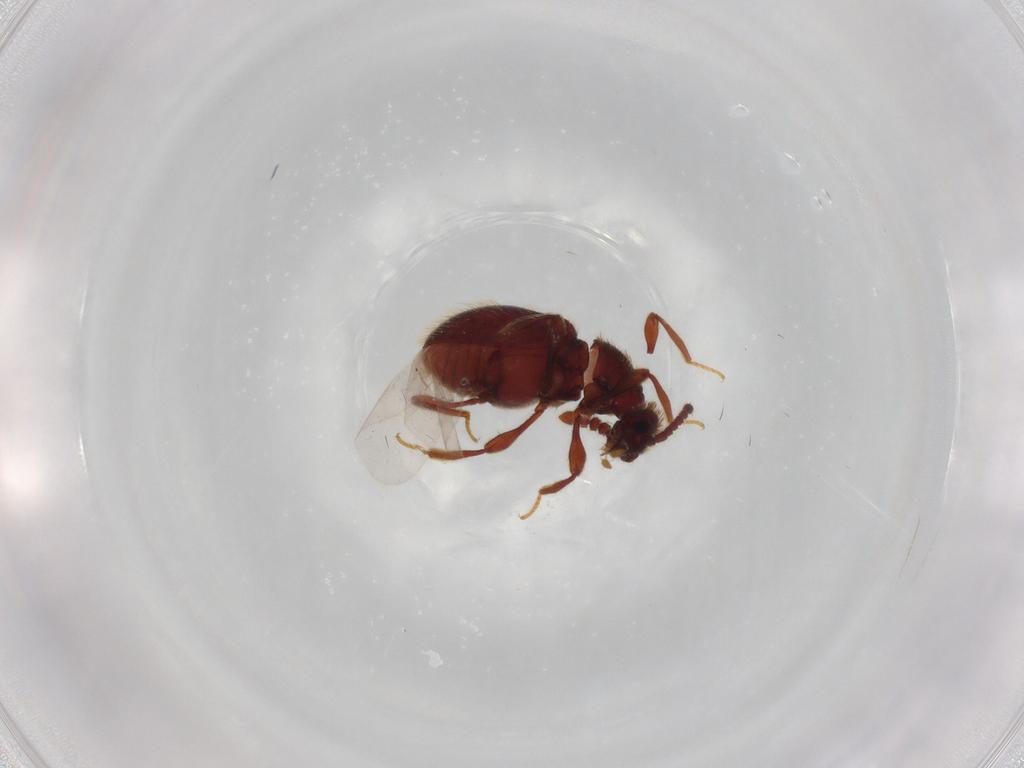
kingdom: Animalia
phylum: Arthropoda
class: Insecta
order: Coleoptera
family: Staphylinidae
